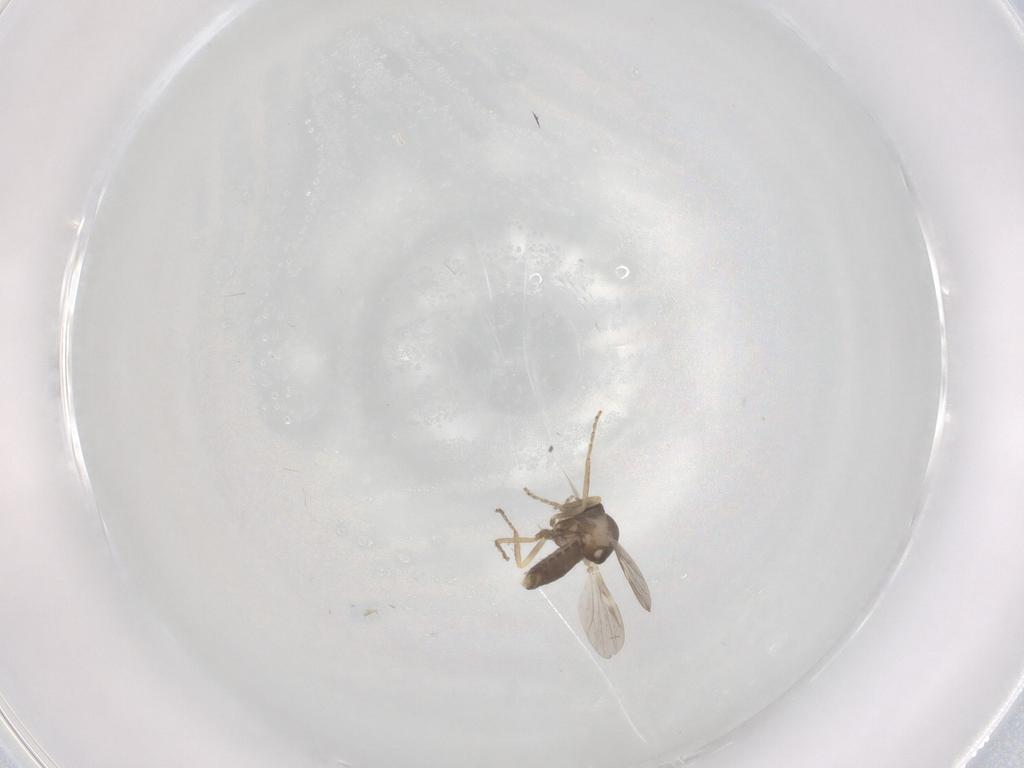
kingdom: Animalia
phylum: Arthropoda
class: Insecta
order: Diptera
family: Ceratopogonidae
